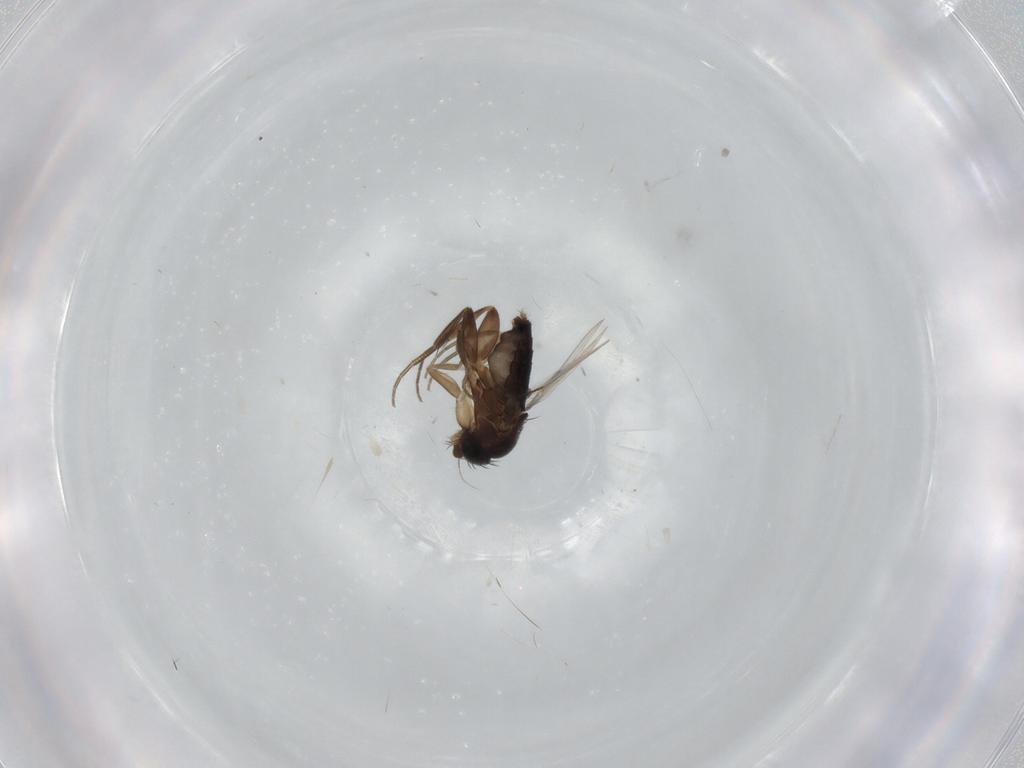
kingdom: Animalia
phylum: Arthropoda
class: Insecta
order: Diptera
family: Phoridae
